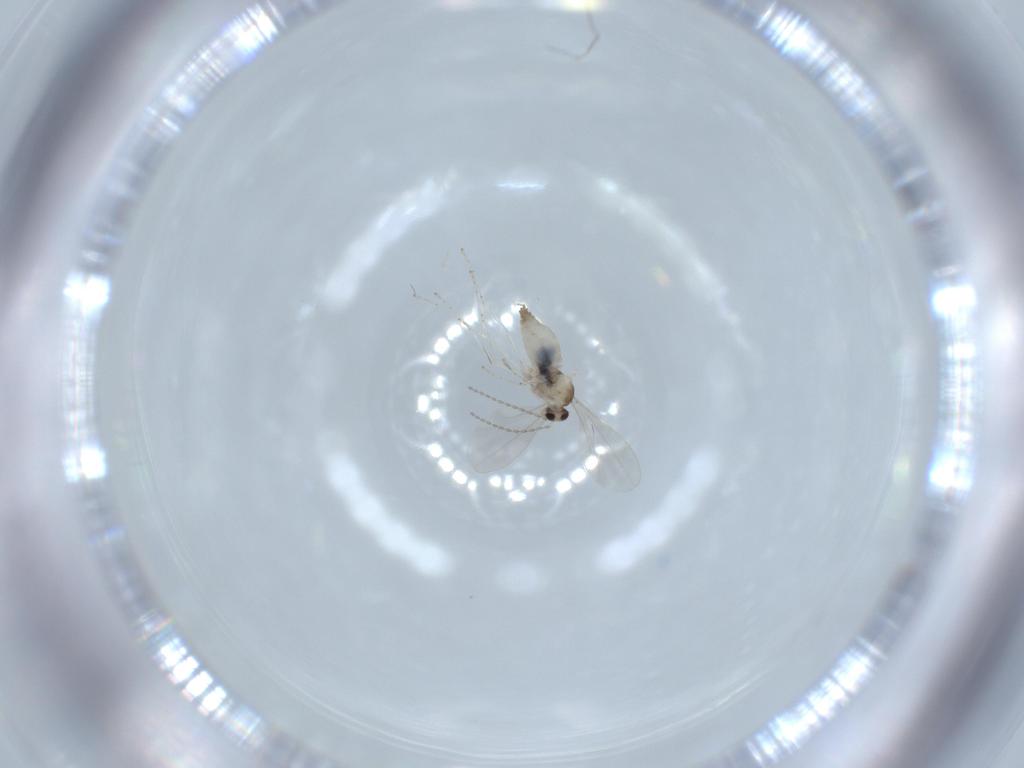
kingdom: Animalia
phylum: Arthropoda
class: Insecta
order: Diptera
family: Cecidomyiidae
